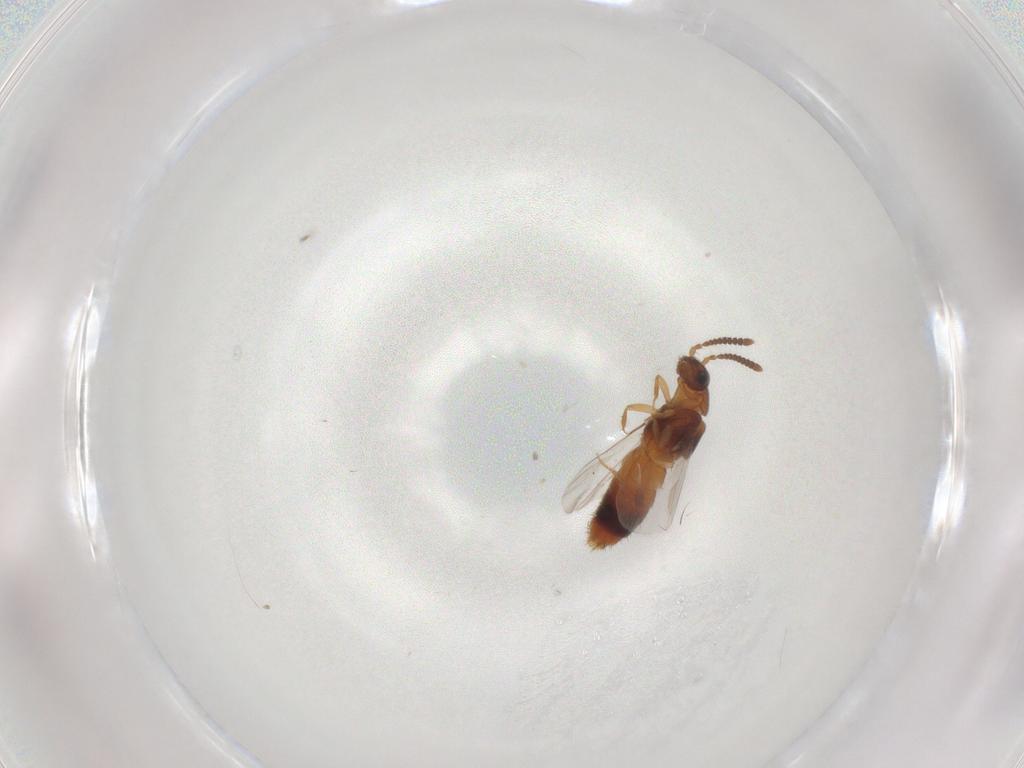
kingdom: Animalia
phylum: Arthropoda
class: Insecta
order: Coleoptera
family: Staphylinidae
